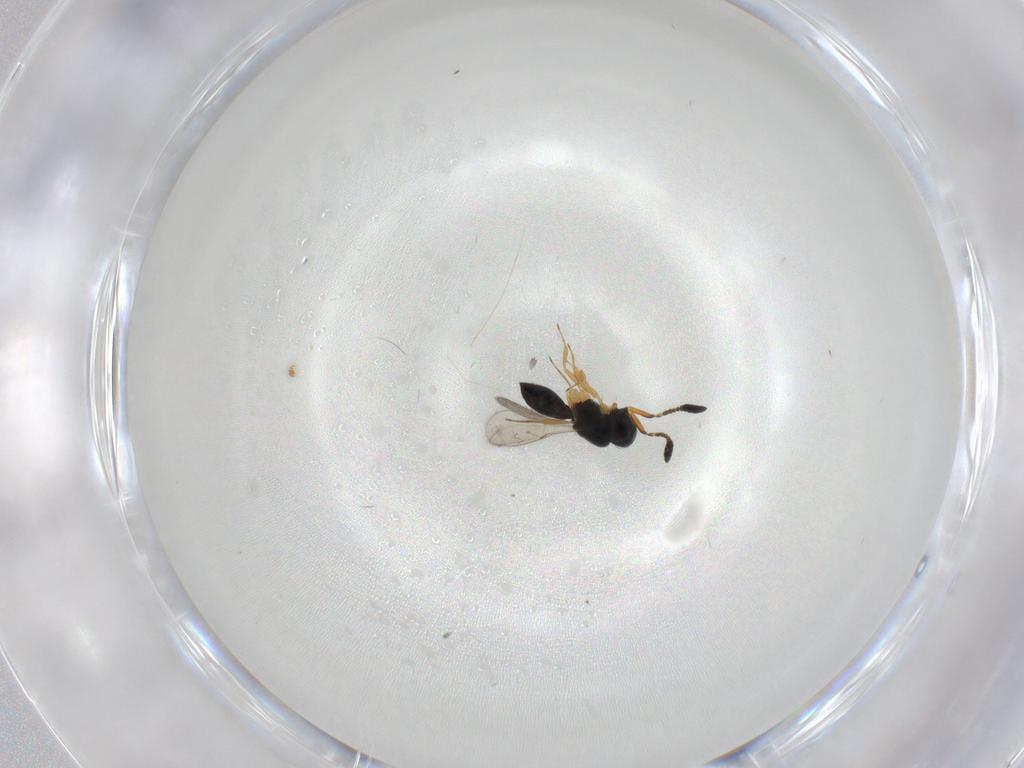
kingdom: Animalia
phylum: Arthropoda
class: Insecta
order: Hymenoptera
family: Scelionidae
